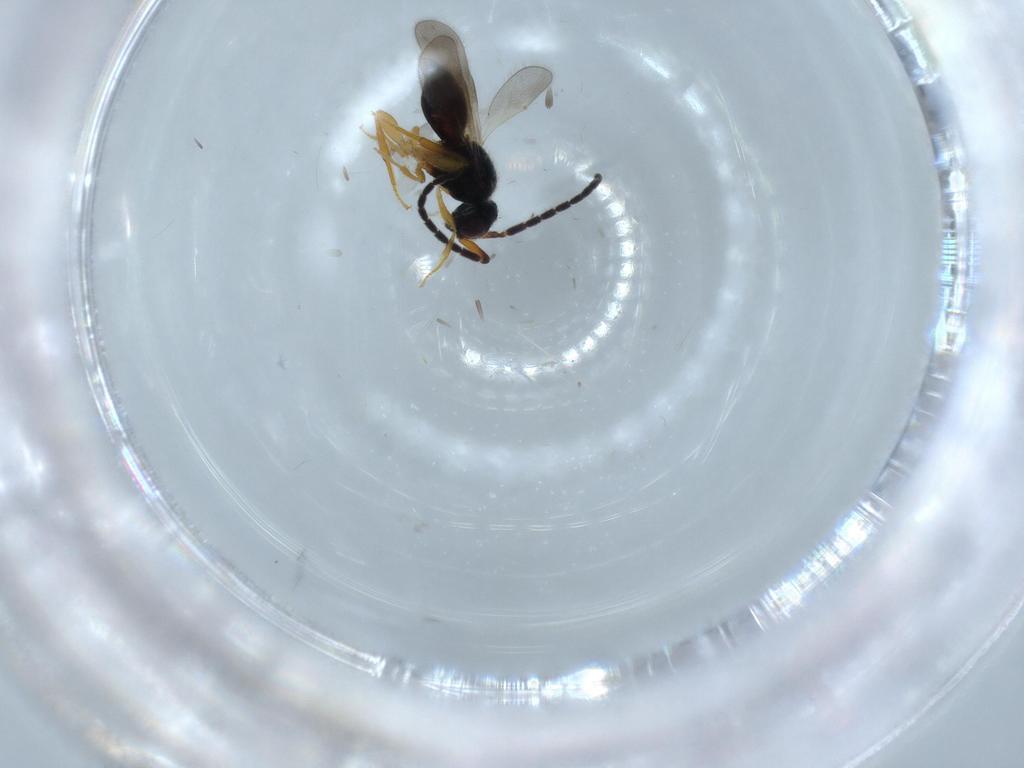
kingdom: Animalia
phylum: Arthropoda
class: Insecta
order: Hymenoptera
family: Ceraphronidae
